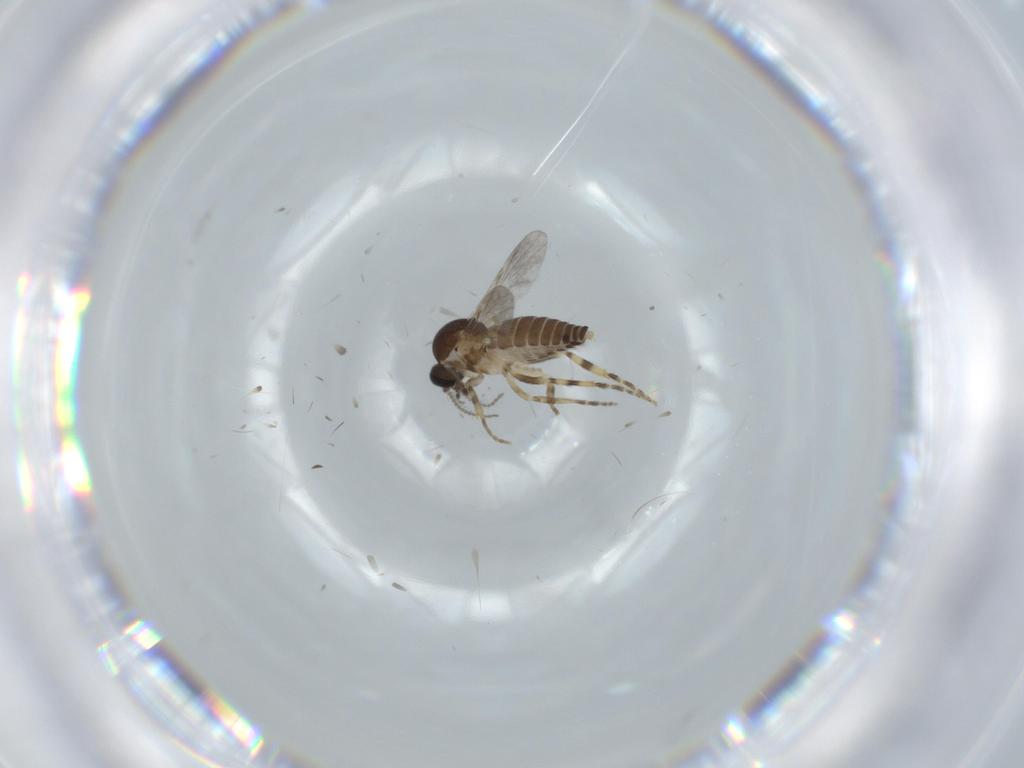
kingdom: Animalia
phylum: Arthropoda
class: Insecta
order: Diptera
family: Ceratopogonidae
